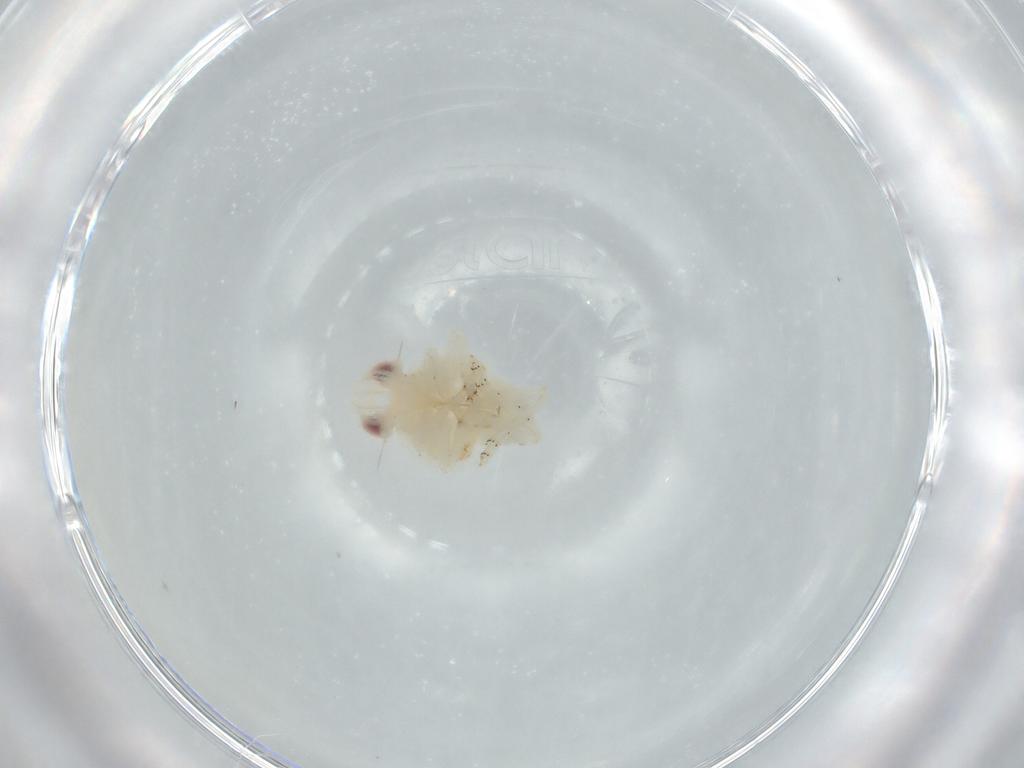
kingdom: Animalia
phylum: Arthropoda
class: Insecta
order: Hemiptera
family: Nogodinidae
